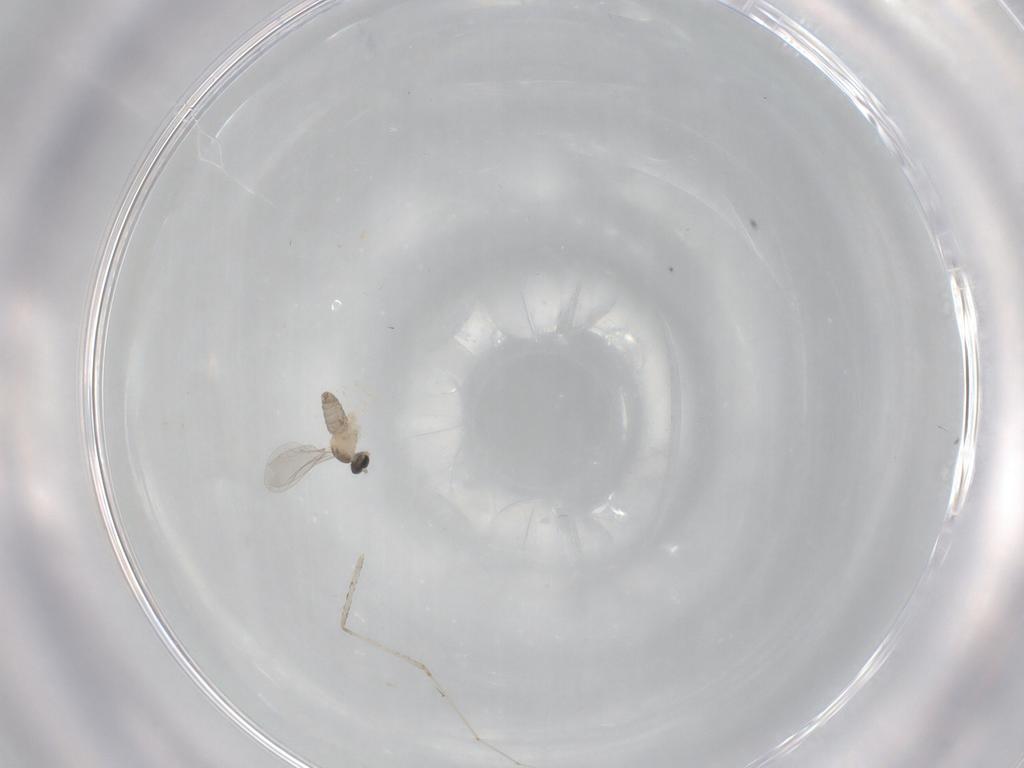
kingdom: Animalia
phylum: Arthropoda
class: Insecta
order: Diptera
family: Cecidomyiidae
